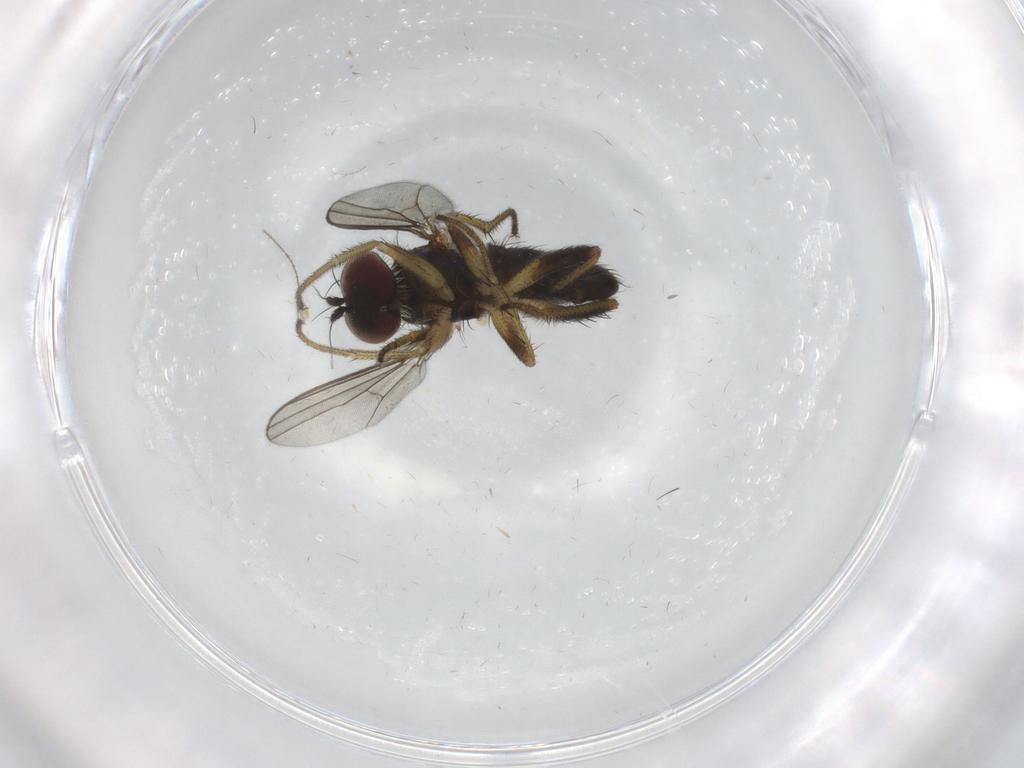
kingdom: Animalia
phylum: Arthropoda
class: Insecta
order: Diptera
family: Dolichopodidae
